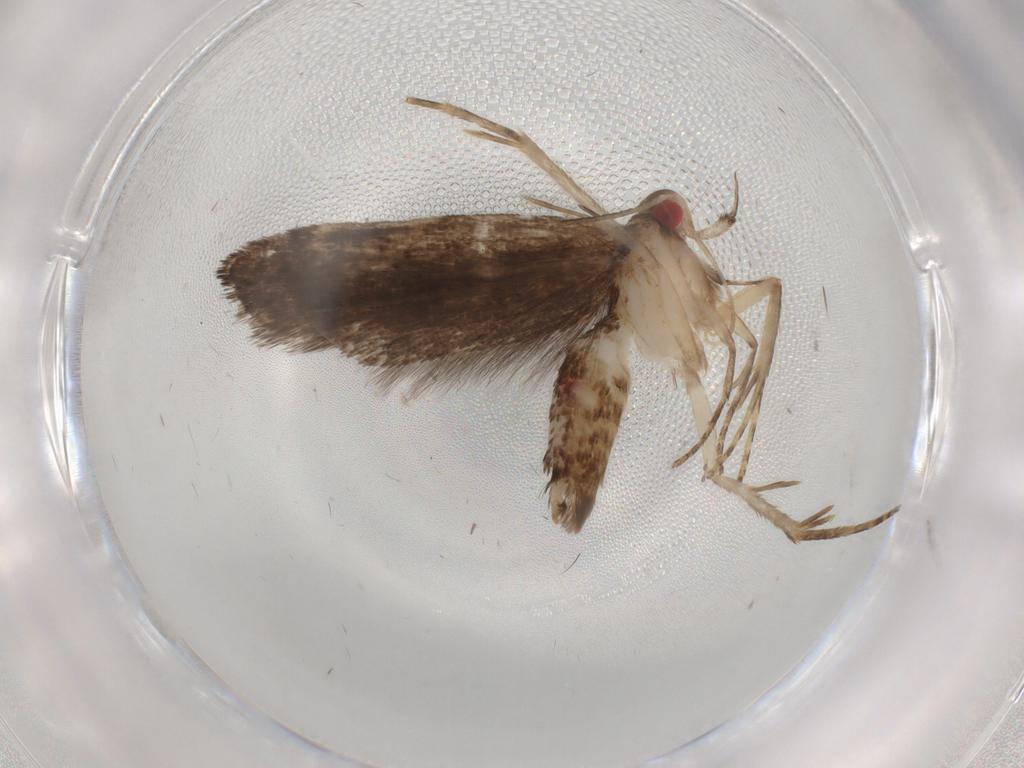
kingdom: Animalia
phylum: Arthropoda
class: Insecta
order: Lepidoptera
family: Gelechiidae
